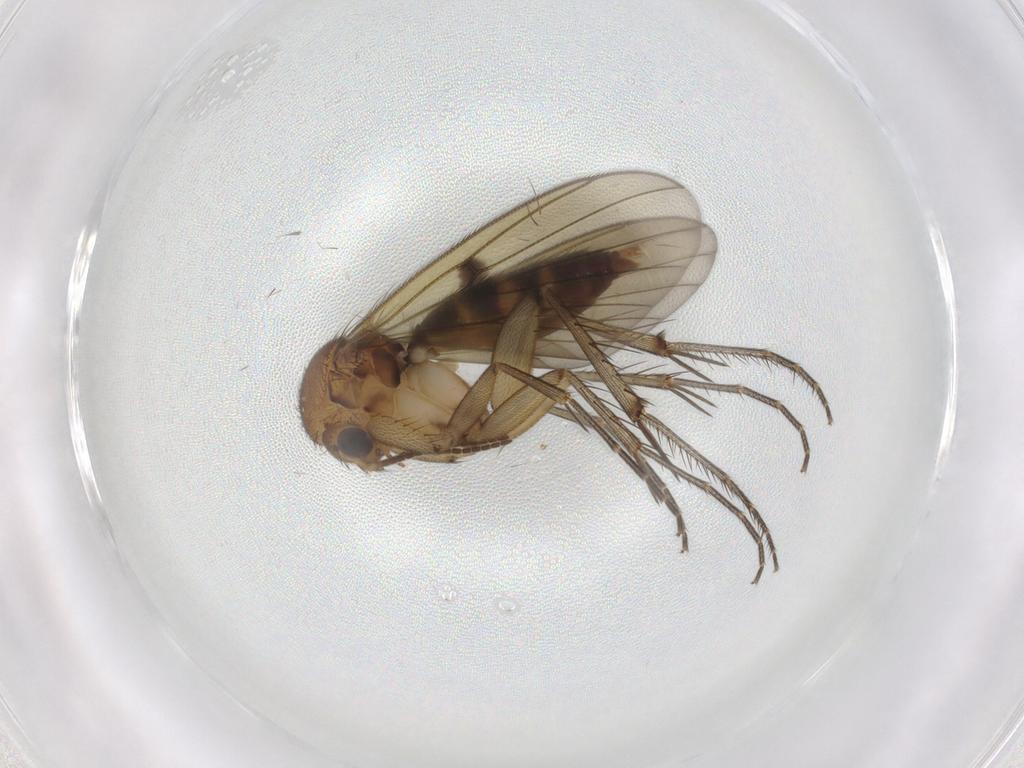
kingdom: Animalia
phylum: Arthropoda
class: Insecta
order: Diptera
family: Mycetophilidae
